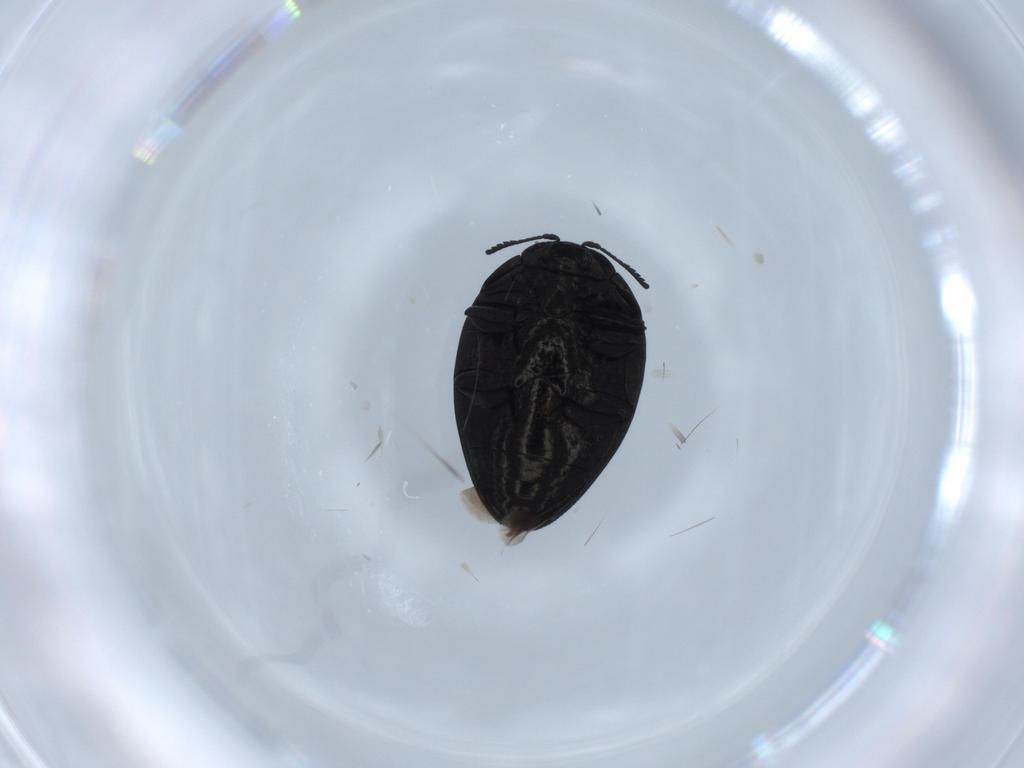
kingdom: Animalia
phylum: Arthropoda
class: Insecta
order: Coleoptera
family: Buprestidae
